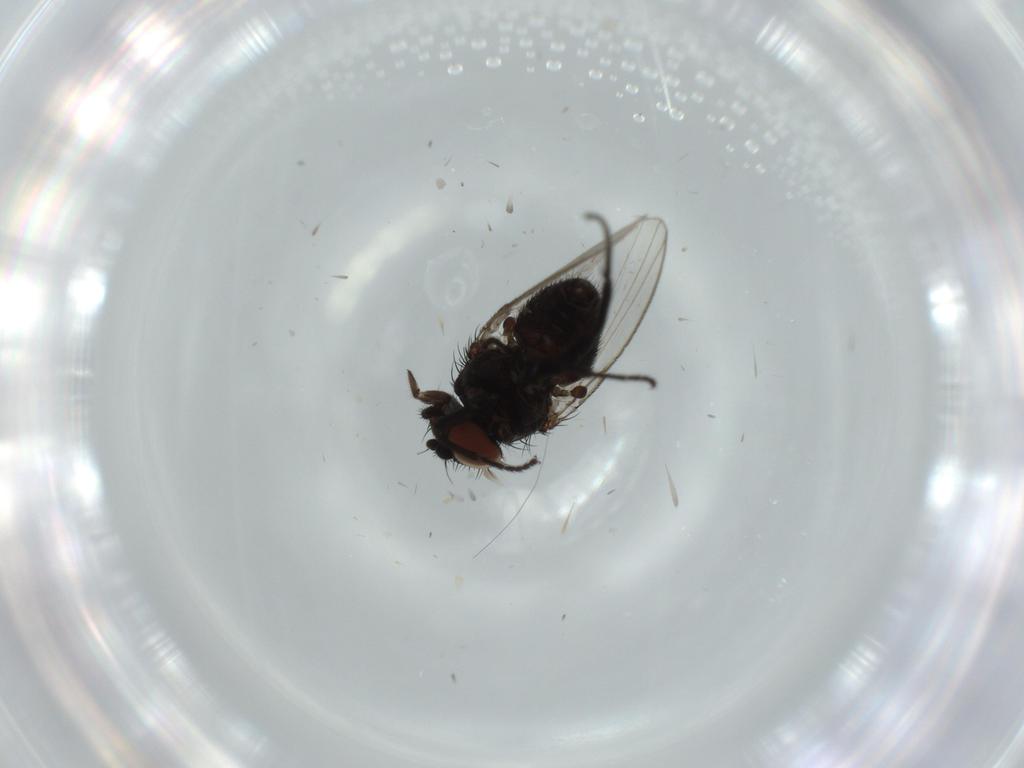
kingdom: Animalia
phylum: Arthropoda
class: Insecta
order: Diptera
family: Milichiidae
